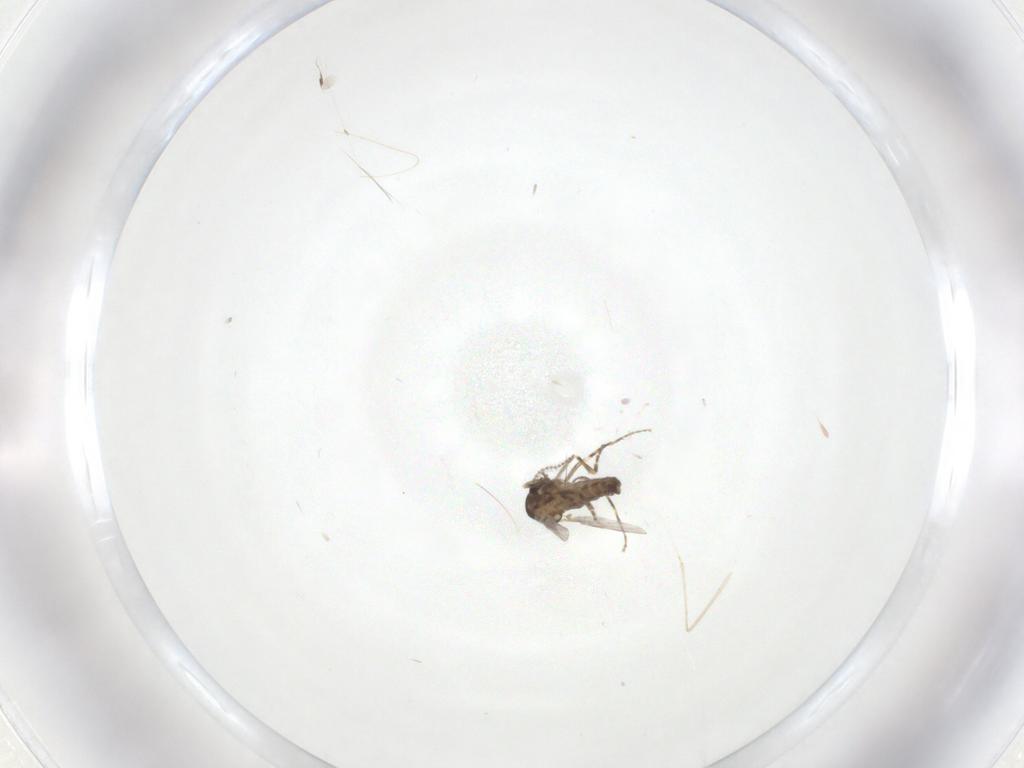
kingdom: Animalia
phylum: Arthropoda
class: Insecta
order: Diptera
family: Ceratopogonidae
